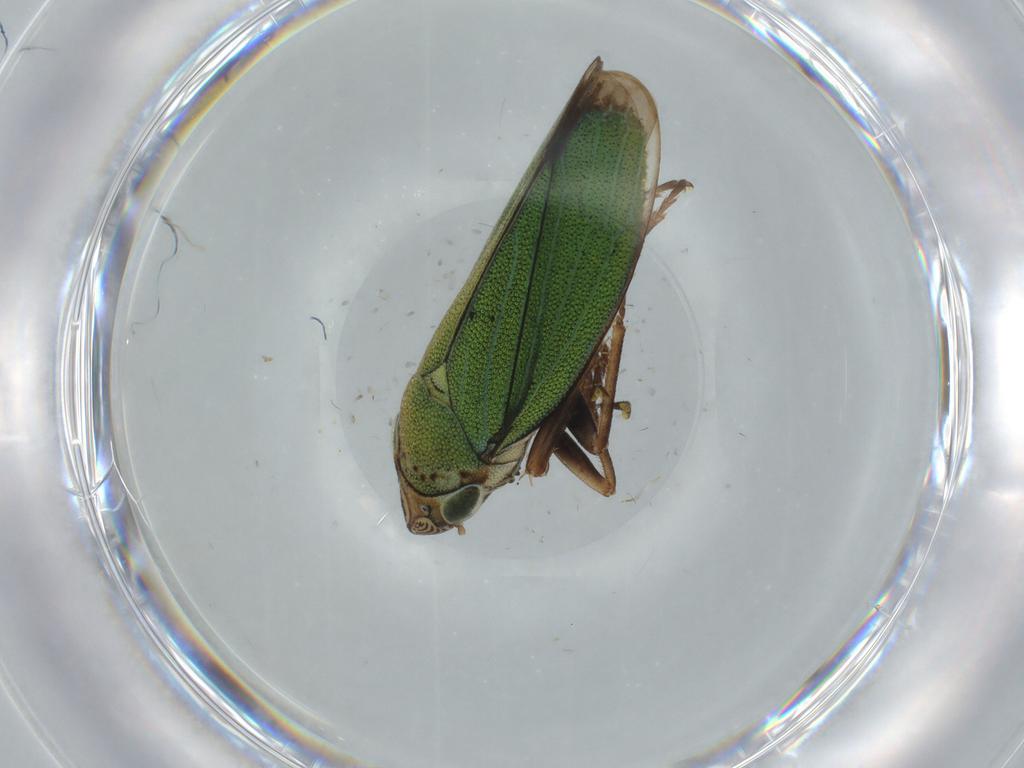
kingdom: Animalia
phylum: Arthropoda
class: Insecta
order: Hemiptera
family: Cicadellidae
